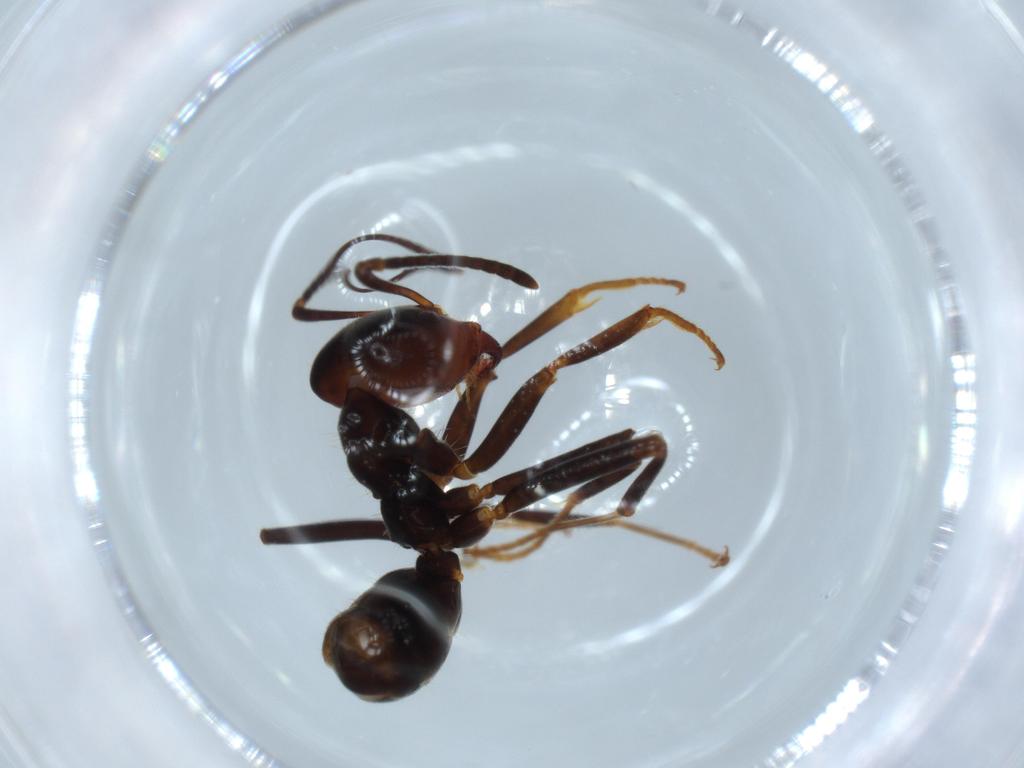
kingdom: Animalia
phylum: Arthropoda
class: Insecta
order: Hymenoptera
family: Formicidae
